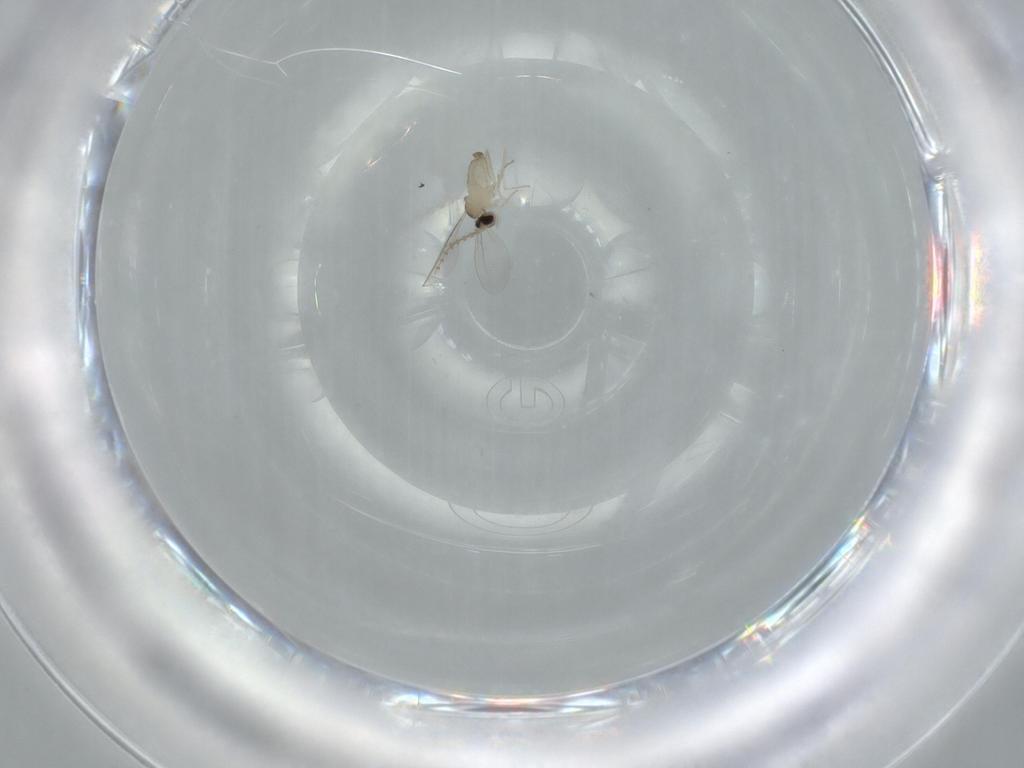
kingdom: Animalia
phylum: Arthropoda
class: Insecta
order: Diptera
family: Cecidomyiidae
